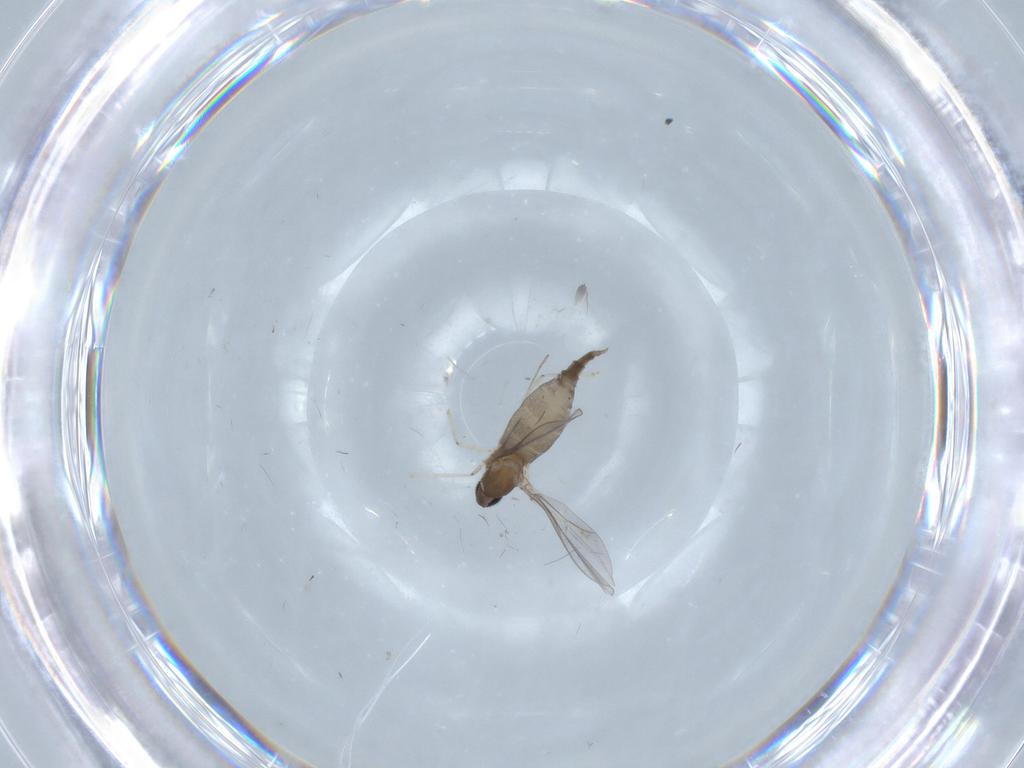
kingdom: Animalia
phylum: Arthropoda
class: Insecta
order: Diptera
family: Cecidomyiidae
